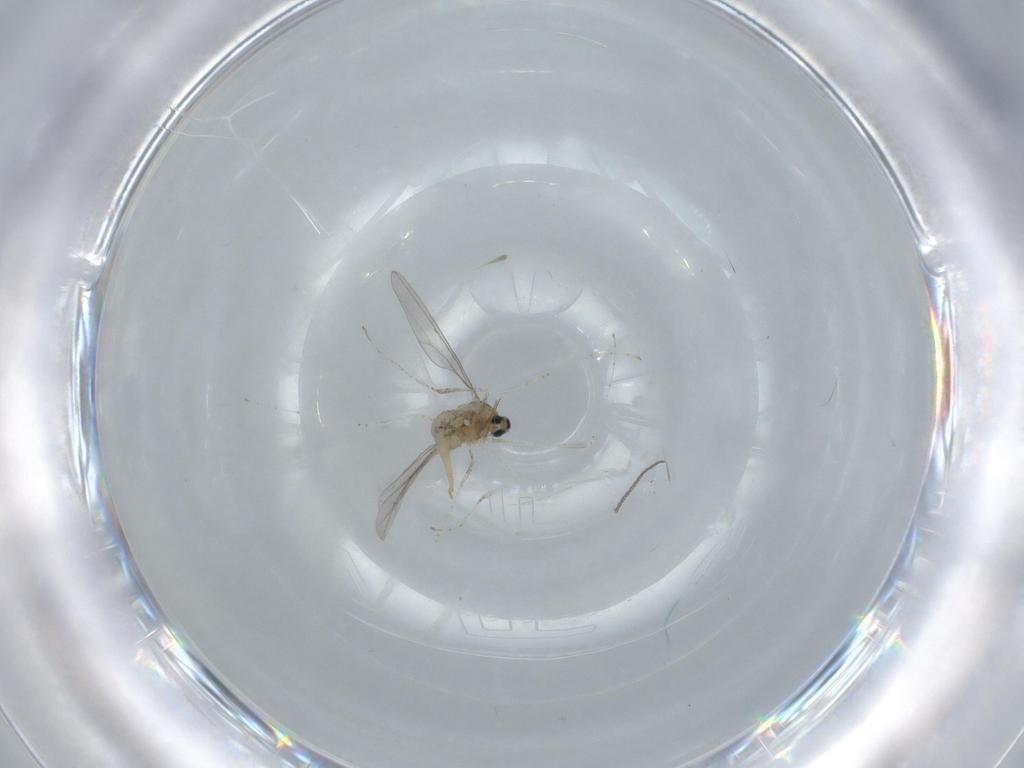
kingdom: Animalia
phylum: Arthropoda
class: Insecta
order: Diptera
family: Cecidomyiidae
